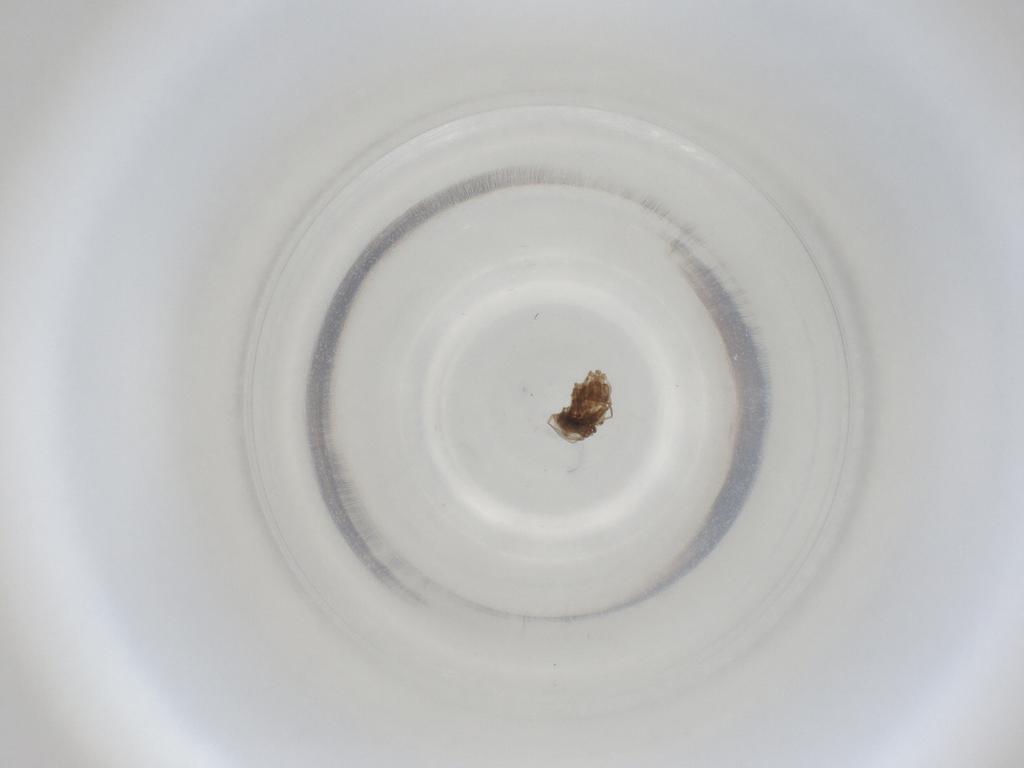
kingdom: Animalia
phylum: Arthropoda
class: Insecta
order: Diptera
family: Cecidomyiidae
